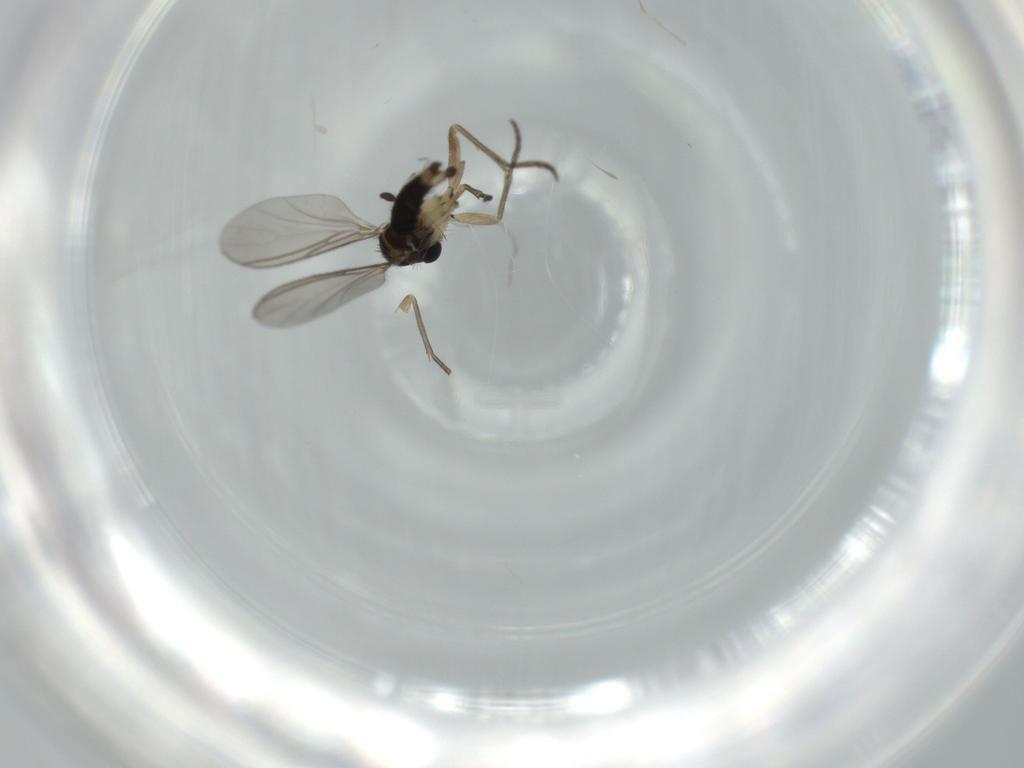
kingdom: Animalia
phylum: Arthropoda
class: Insecta
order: Diptera
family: Sciaridae
